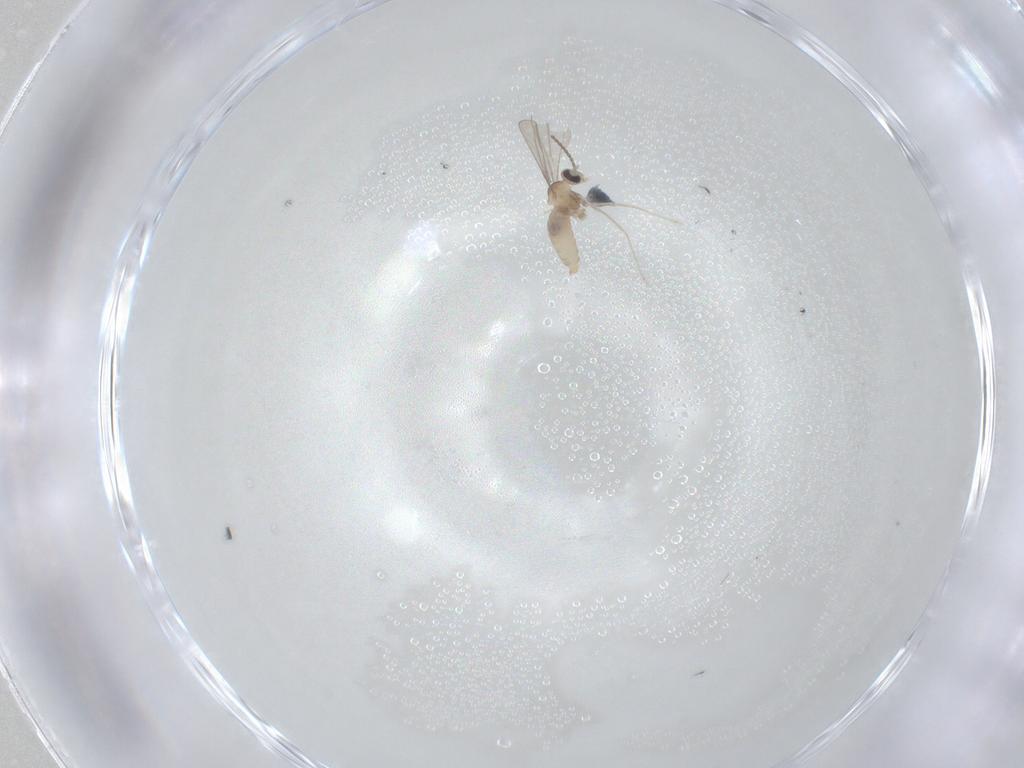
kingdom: Animalia
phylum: Arthropoda
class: Insecta
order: Diptera
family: Cecidomyiidae
